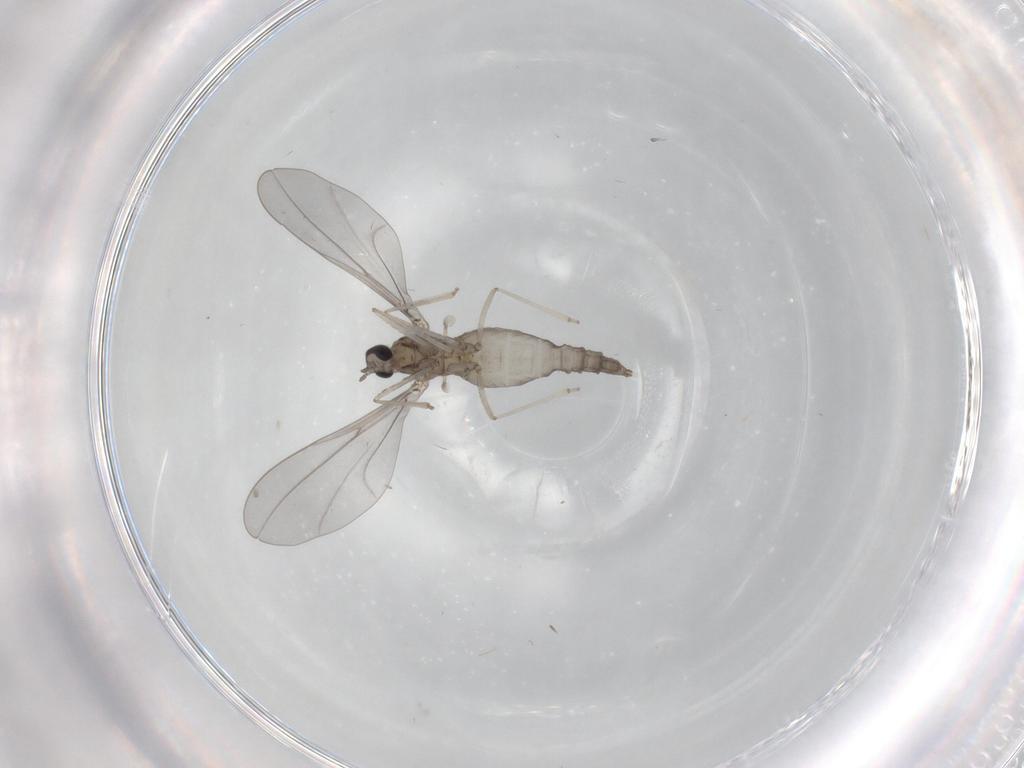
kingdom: Animalia
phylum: Arthropoda
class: Insecta
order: Diptera
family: Cecidomyiidae
